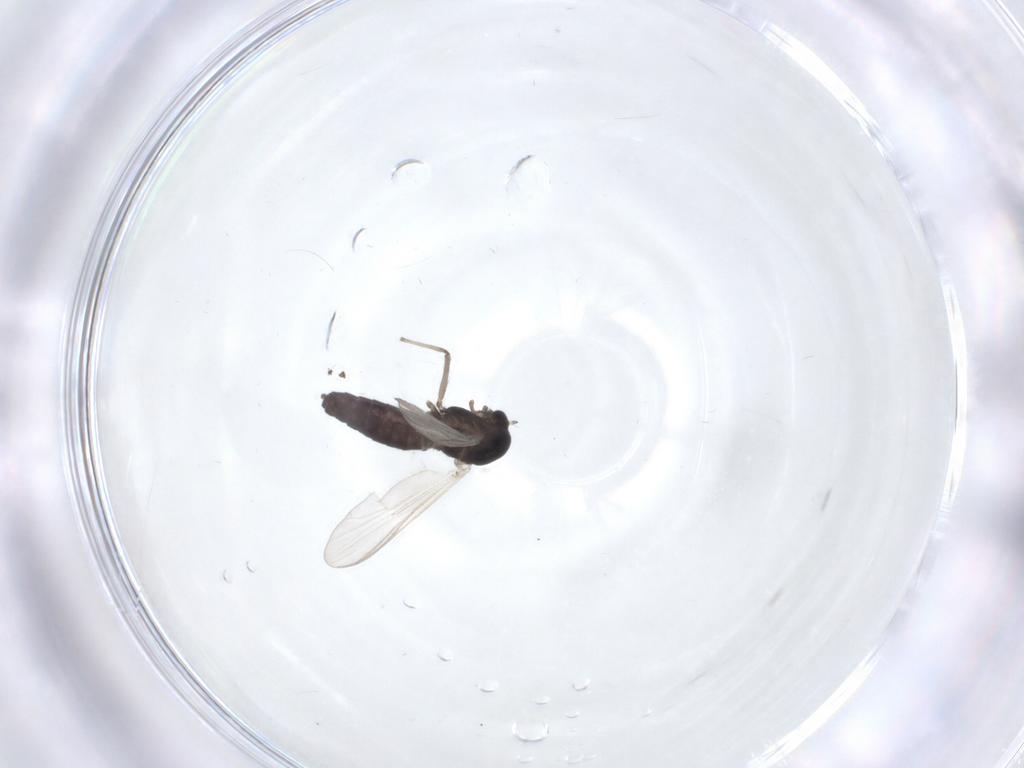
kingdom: Animalia
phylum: Arthropoda
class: Insecta
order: Diptera
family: Chironomidae
